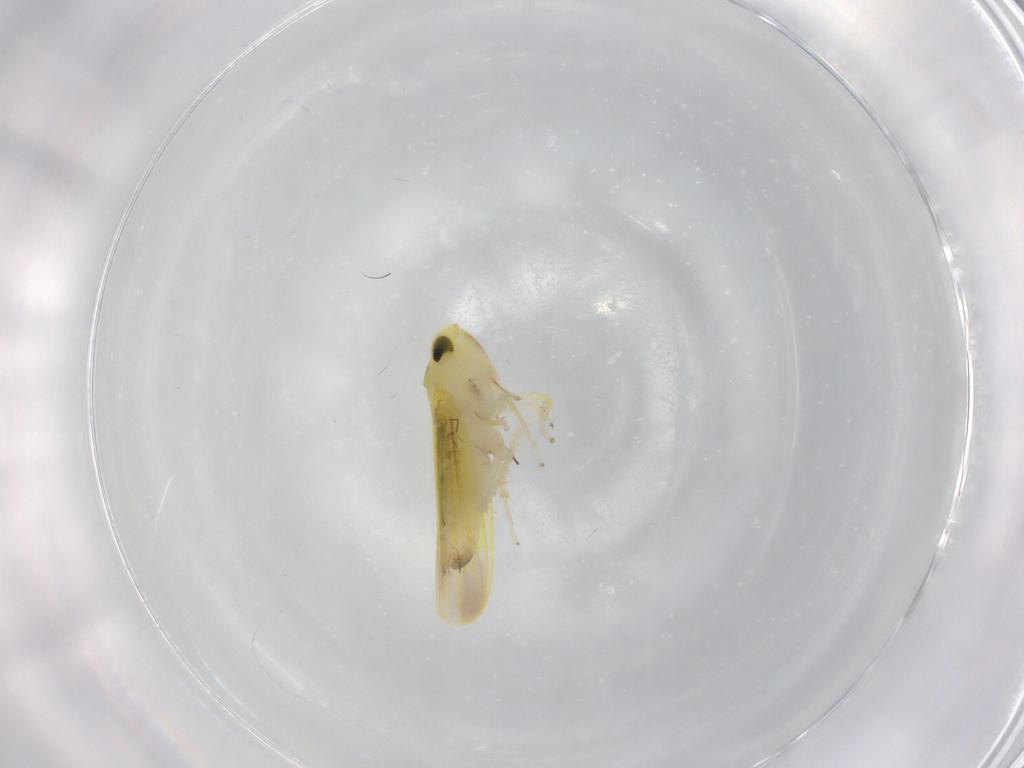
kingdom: Animalia
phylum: Arthropoda
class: Insecta
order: Hemiptera
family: Cicadellidae
